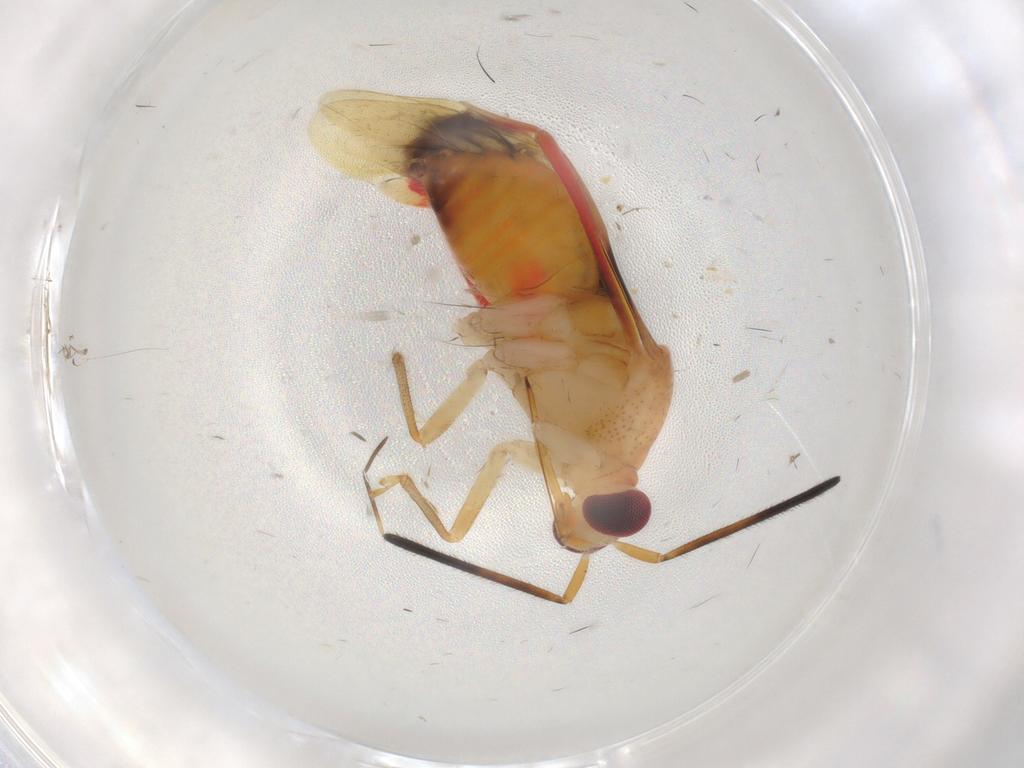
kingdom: Animalia
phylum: Arthropoda
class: Insecta
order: Hemiptera
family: Miridae
